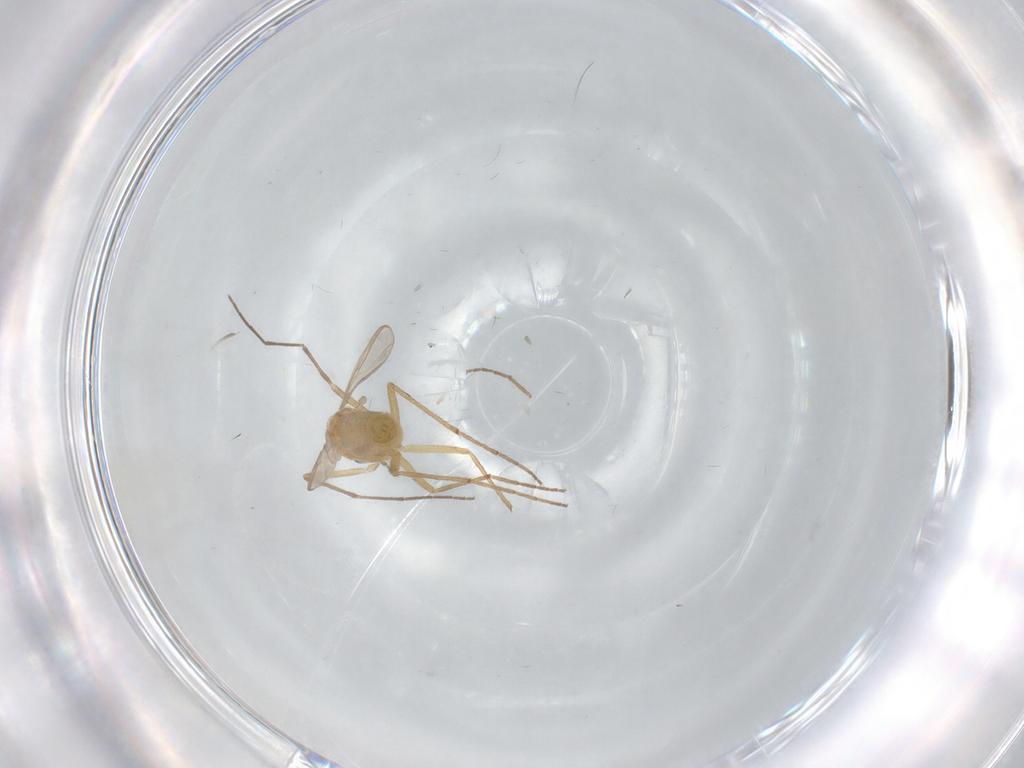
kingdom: Animalia
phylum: Arthropoda
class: Insecta
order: Diptera
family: Chironomidae
